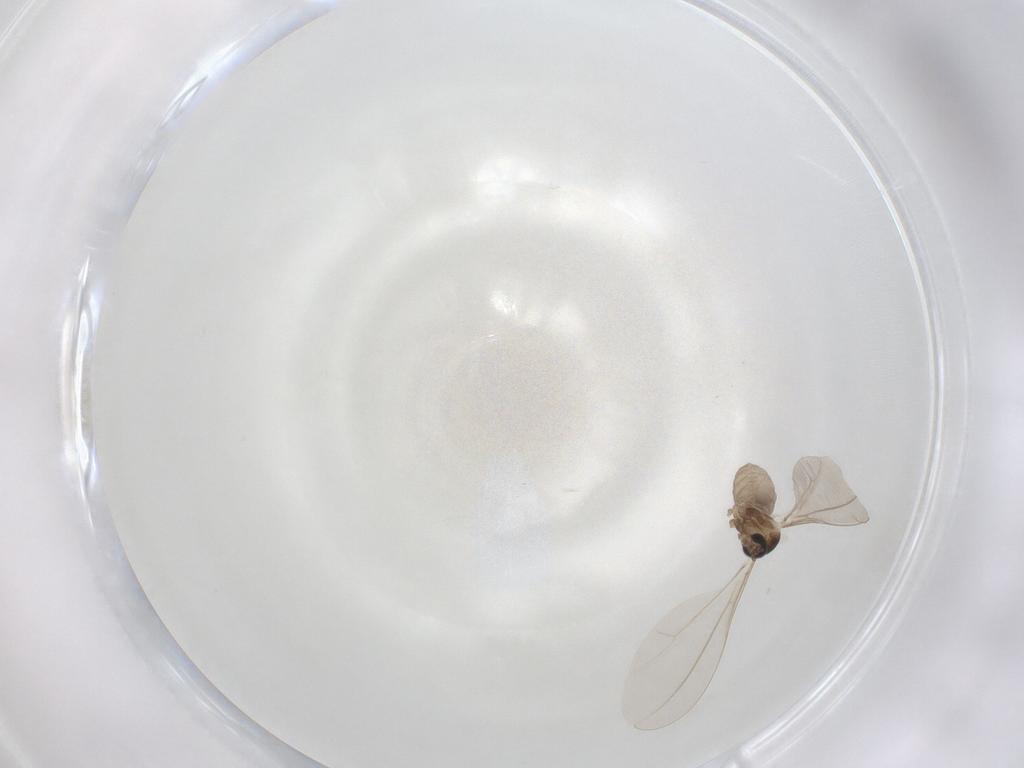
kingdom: Animalia
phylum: Arthropoda
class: Insecta
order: Diptera
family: Cecidomyiidae
